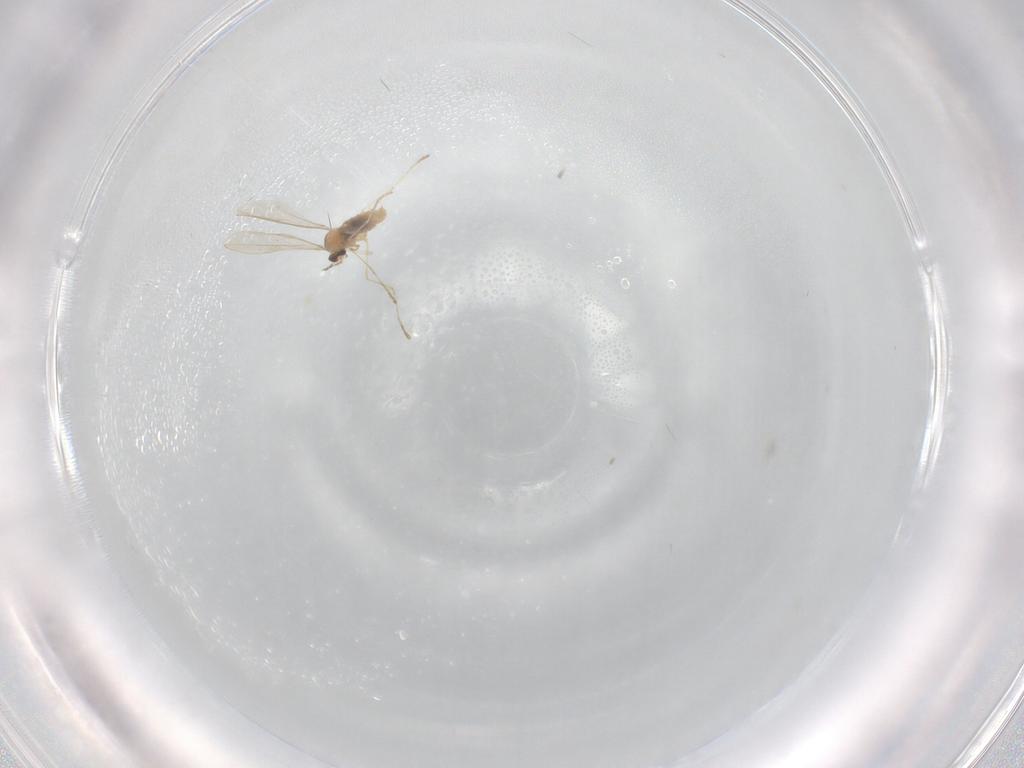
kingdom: Animalia
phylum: Arthropoda
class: Insecta
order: Diptera
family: Cecidomyiidae
